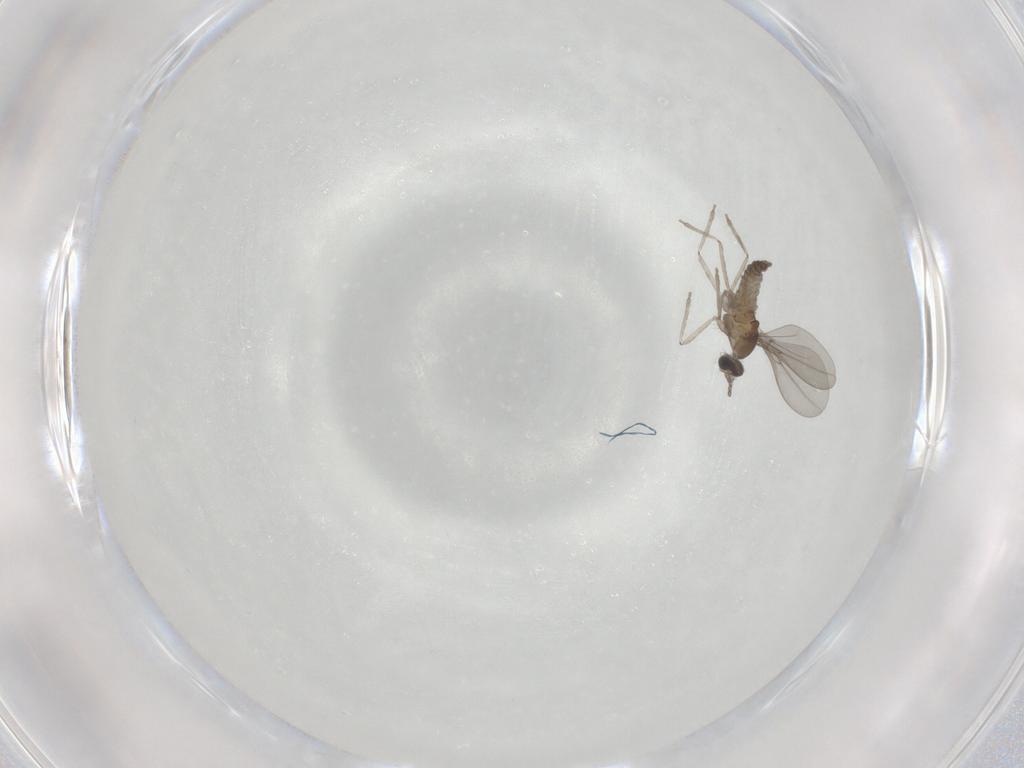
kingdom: Animalia
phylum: Arthropoda
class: Insecta
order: Diptera
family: Cecidomyiidae
